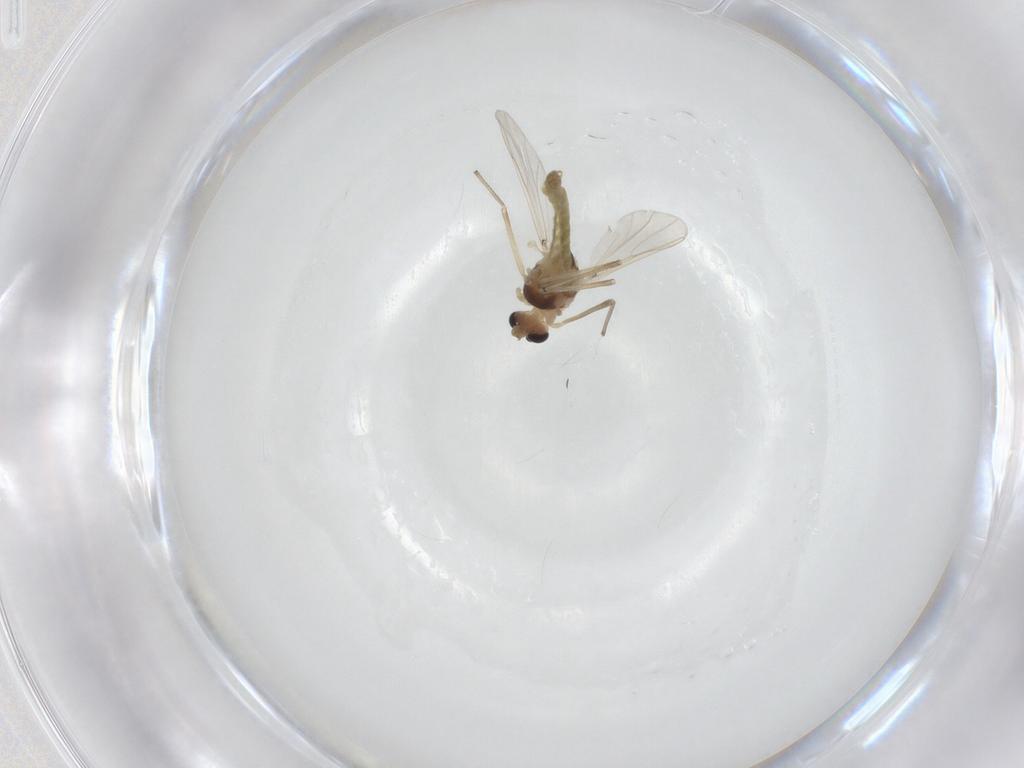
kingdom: Animalia
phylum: Arthropoda
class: Insecta
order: Diptera
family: Chironomidae
